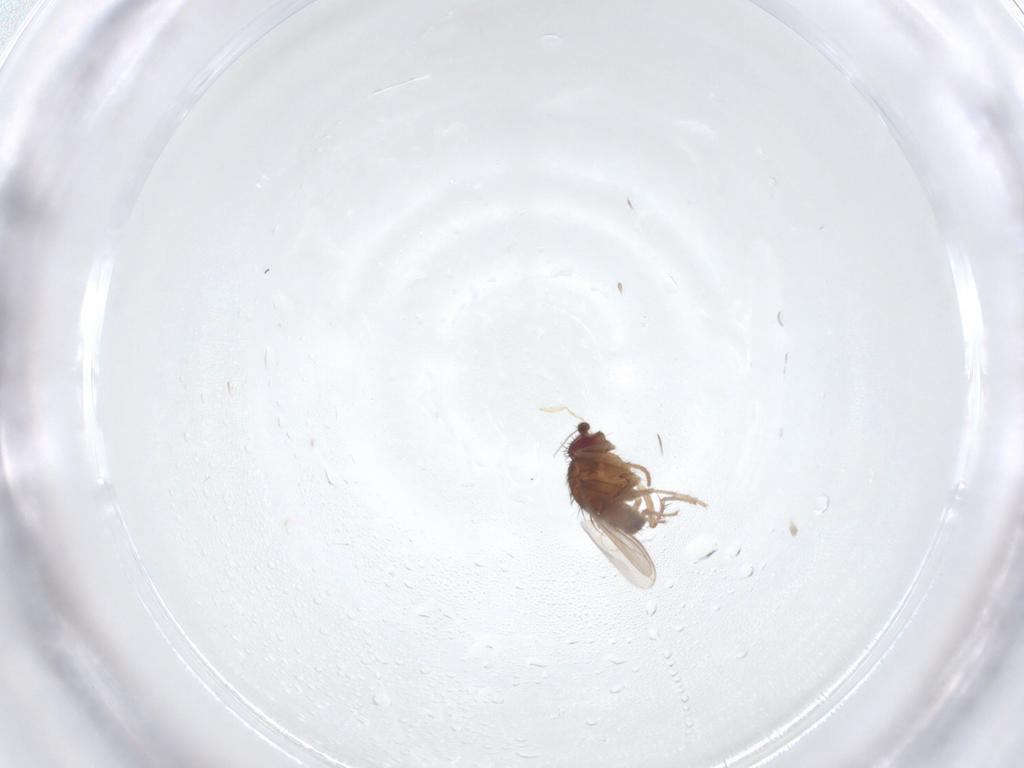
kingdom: Animalia
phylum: Arthropoda
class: Insecta
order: Diptera
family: Sphaeroceridae
